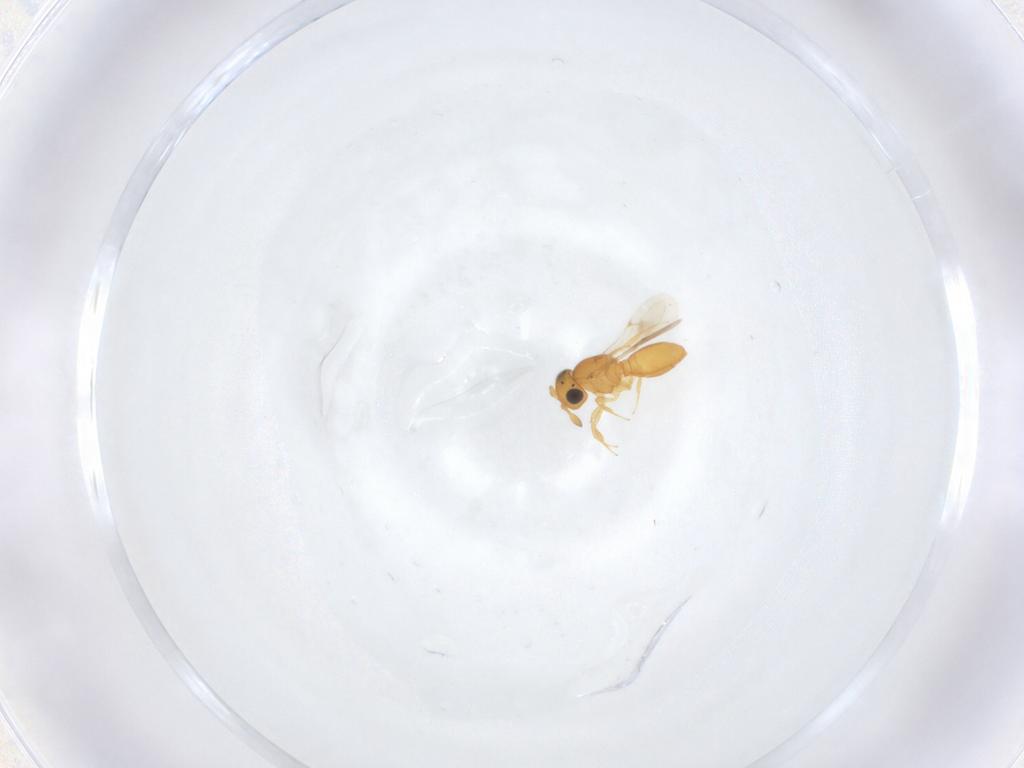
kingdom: Animalia
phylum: Arthropoda
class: Insecta
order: Hymenoptera
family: Scelionidae
